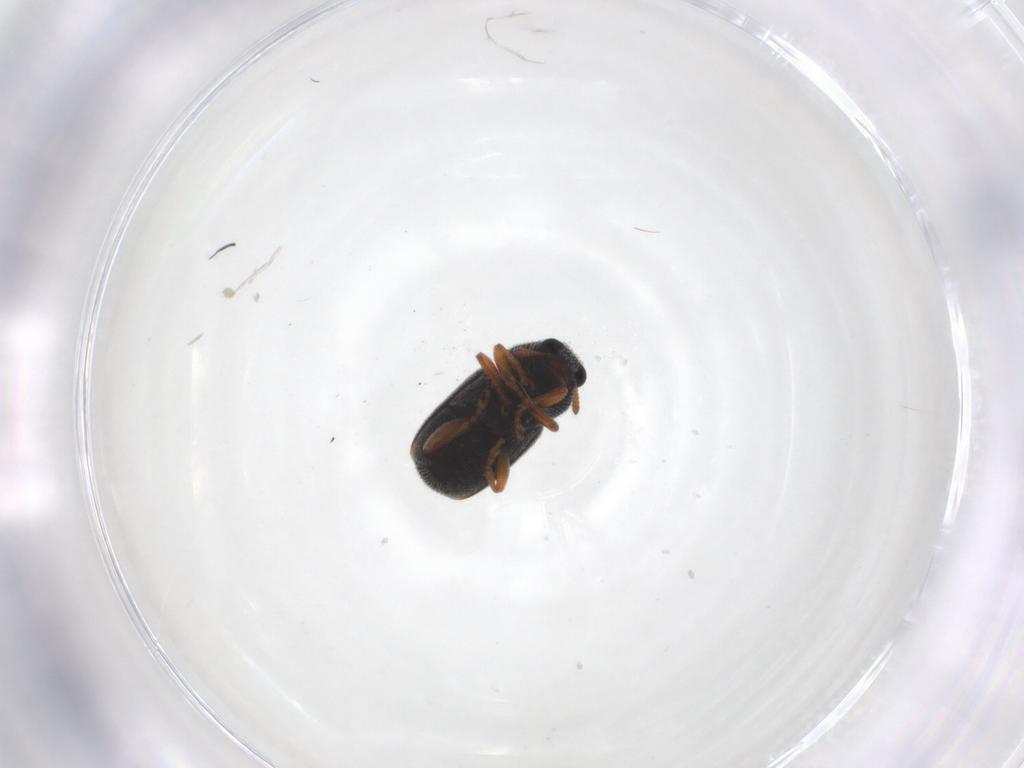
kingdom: Animalia
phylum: Arthropoda
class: Insecta
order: Coleoptera
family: Anthribidae
